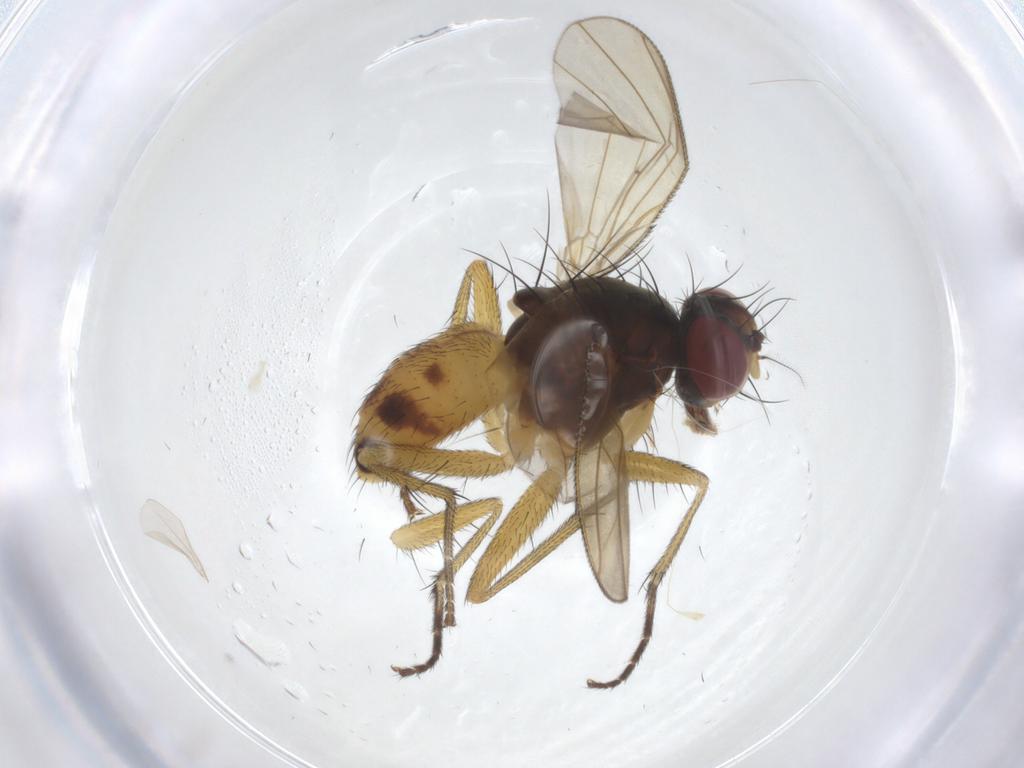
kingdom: Animalia
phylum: Arthropoda
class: Insecta
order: Diptera
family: Muscidae
